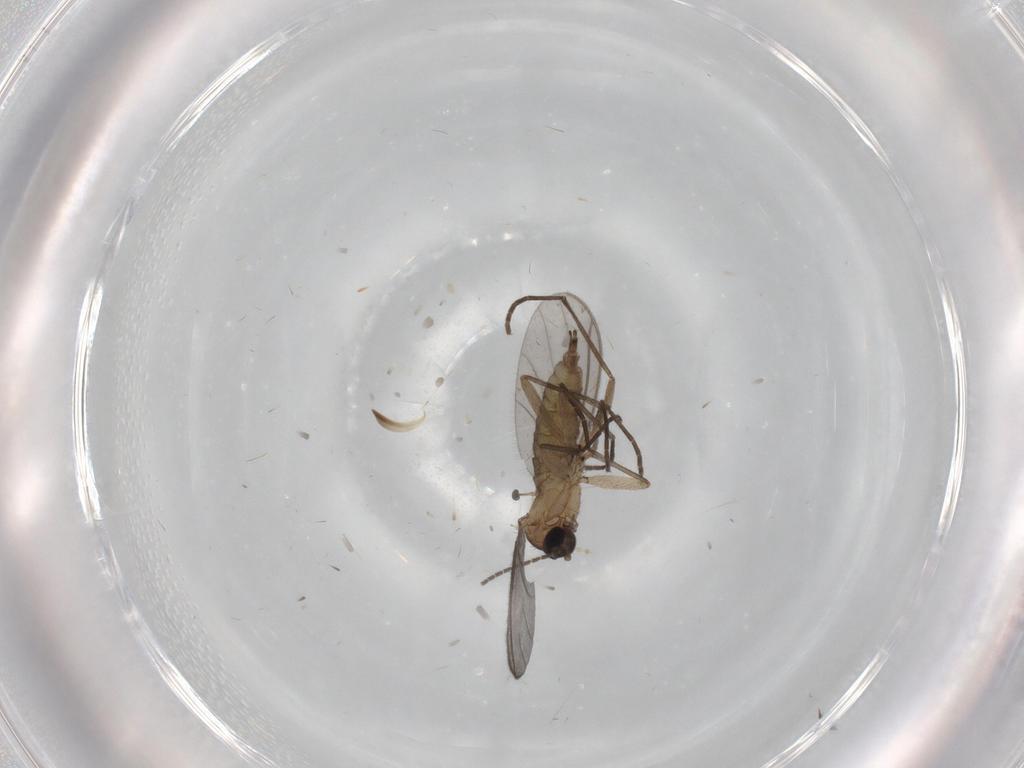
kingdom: Animalia
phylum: Arthropoda
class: Insecta
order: Diptera
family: Sciaridae
